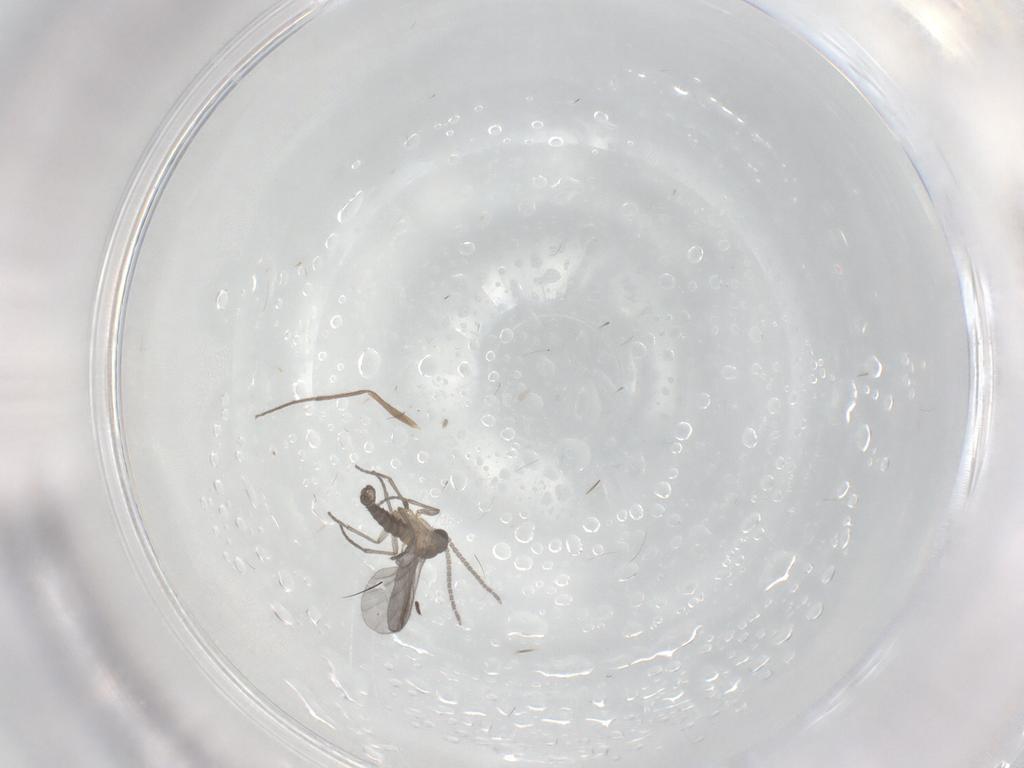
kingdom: Animalia
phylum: Arthropoda
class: Insecta
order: Diptera
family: Sciaridae
